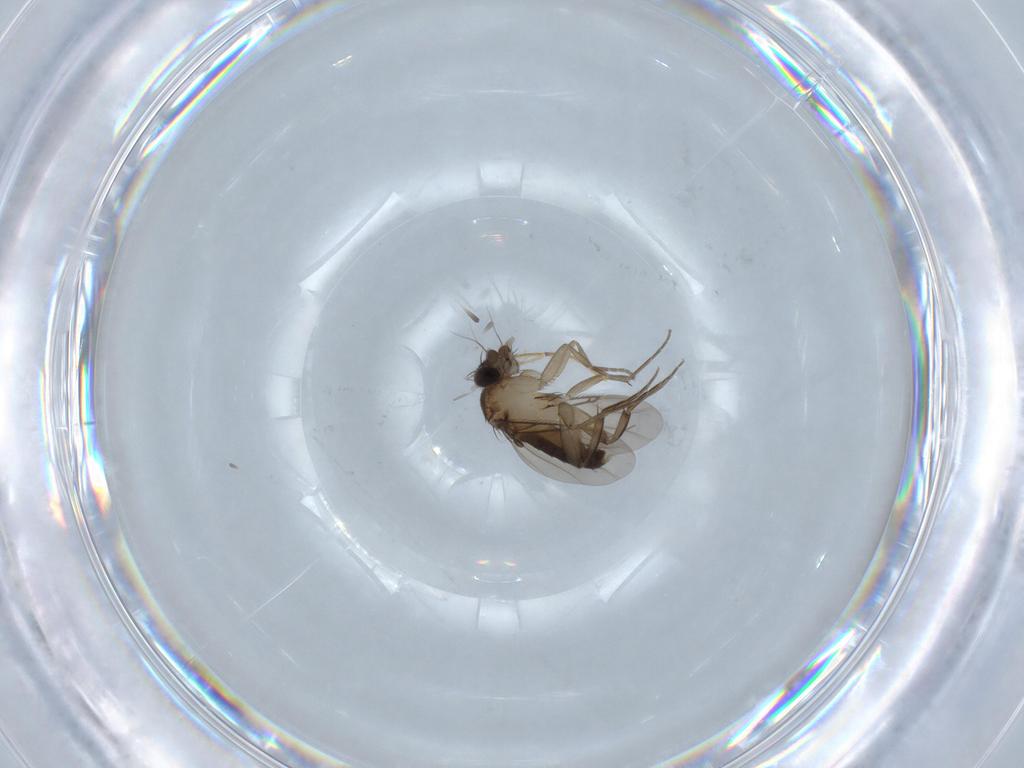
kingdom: Animalia
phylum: Arthropoda
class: Insecta
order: Diptera
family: Phoridae
